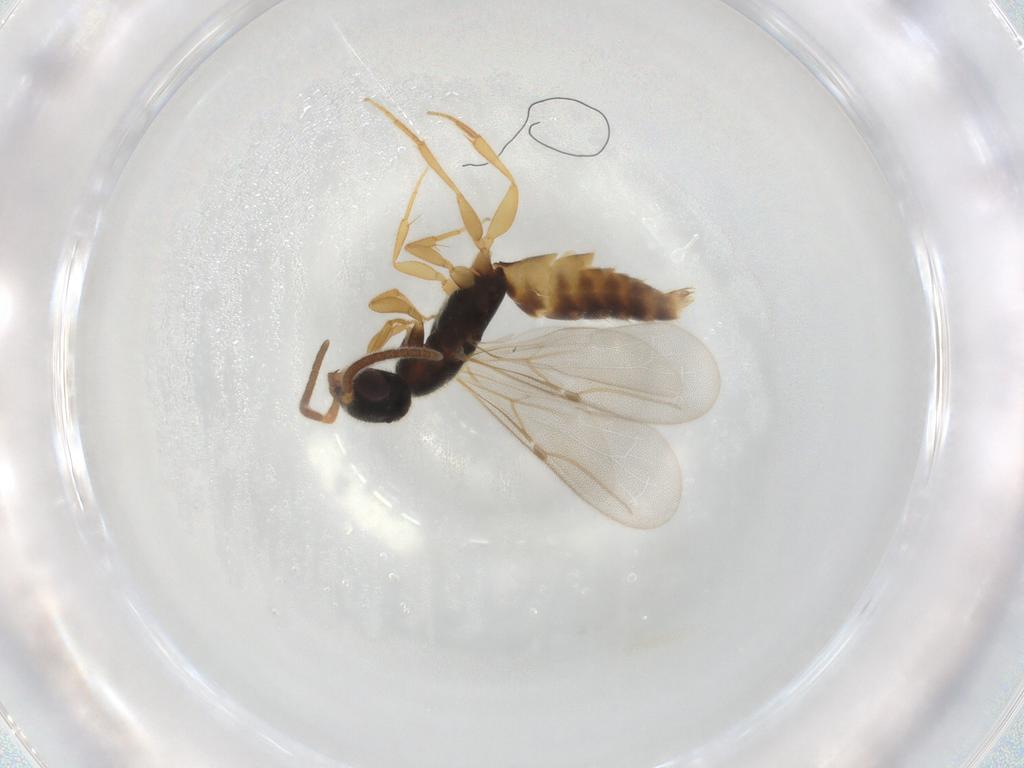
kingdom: Animalia
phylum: Arthropoda
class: Insecta
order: Hymenoptera
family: Bethylidae
